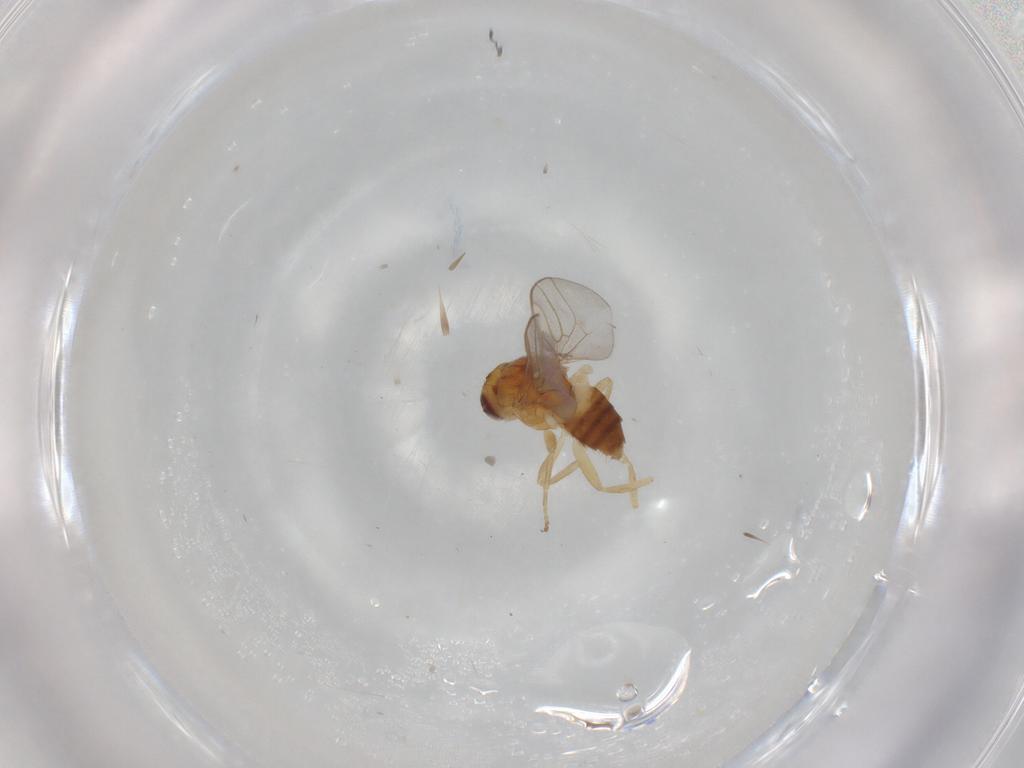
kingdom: Animalia
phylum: Arthropoda
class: Insecta
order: Diptera
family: Chloropidae
